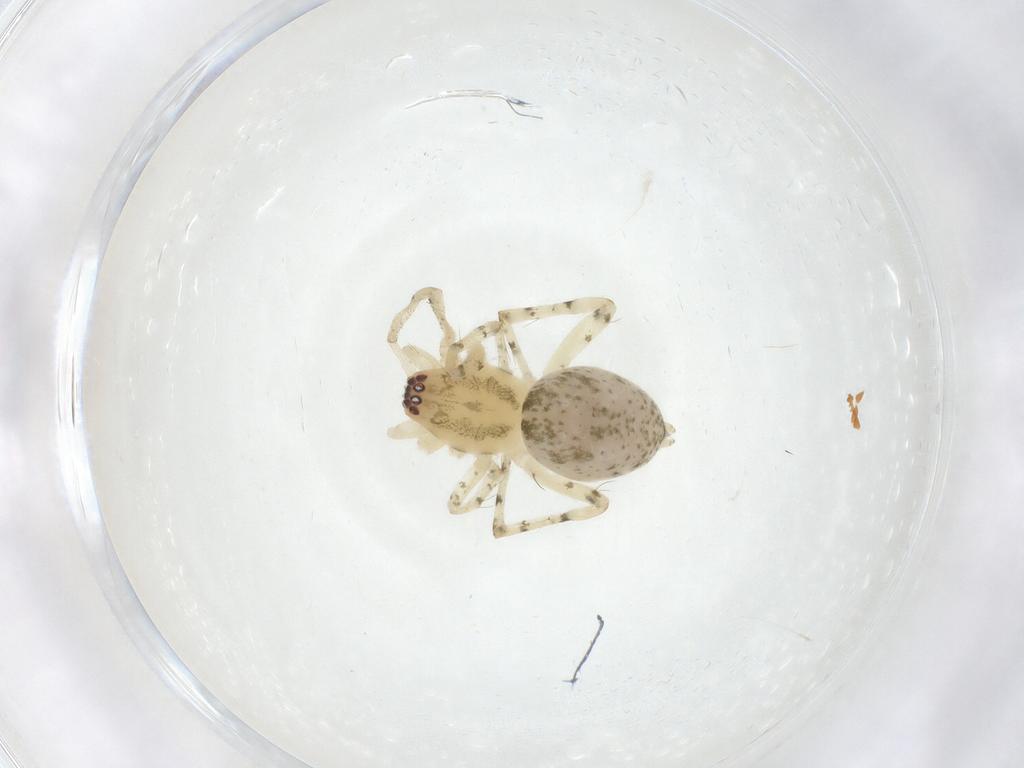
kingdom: Animalia
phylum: Arthropoda
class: Arachnida
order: Araneae
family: Anyphaenidae
